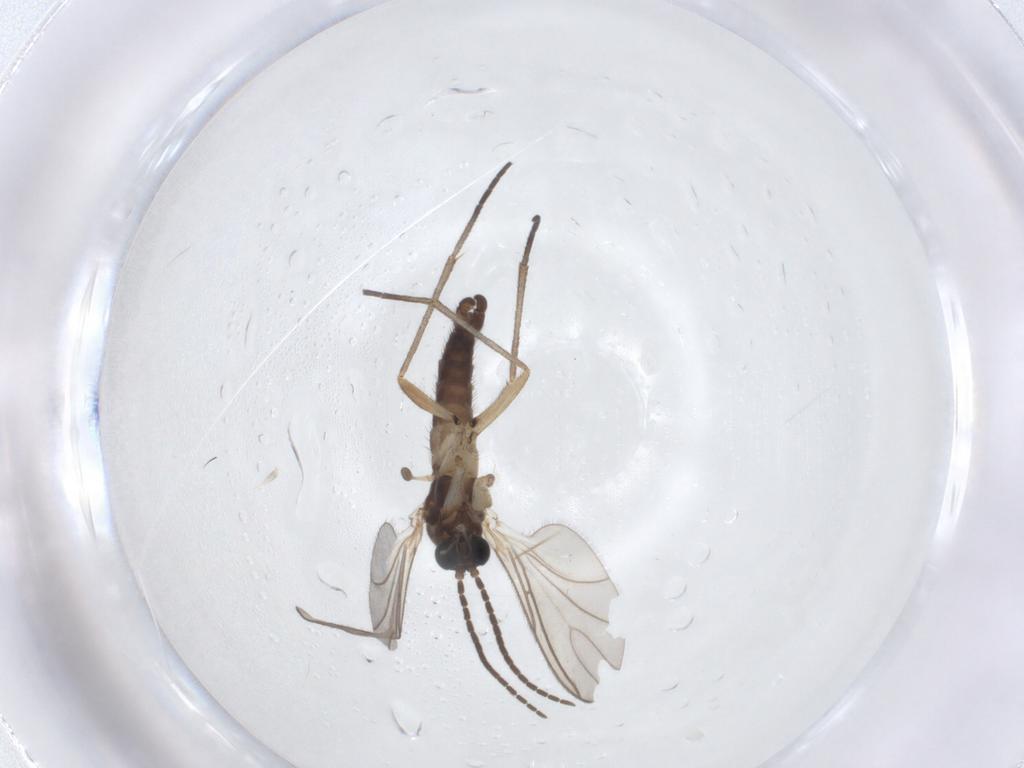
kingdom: Animalia
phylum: Arthropoda
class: Insecta
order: Diptera
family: Sciaridae
